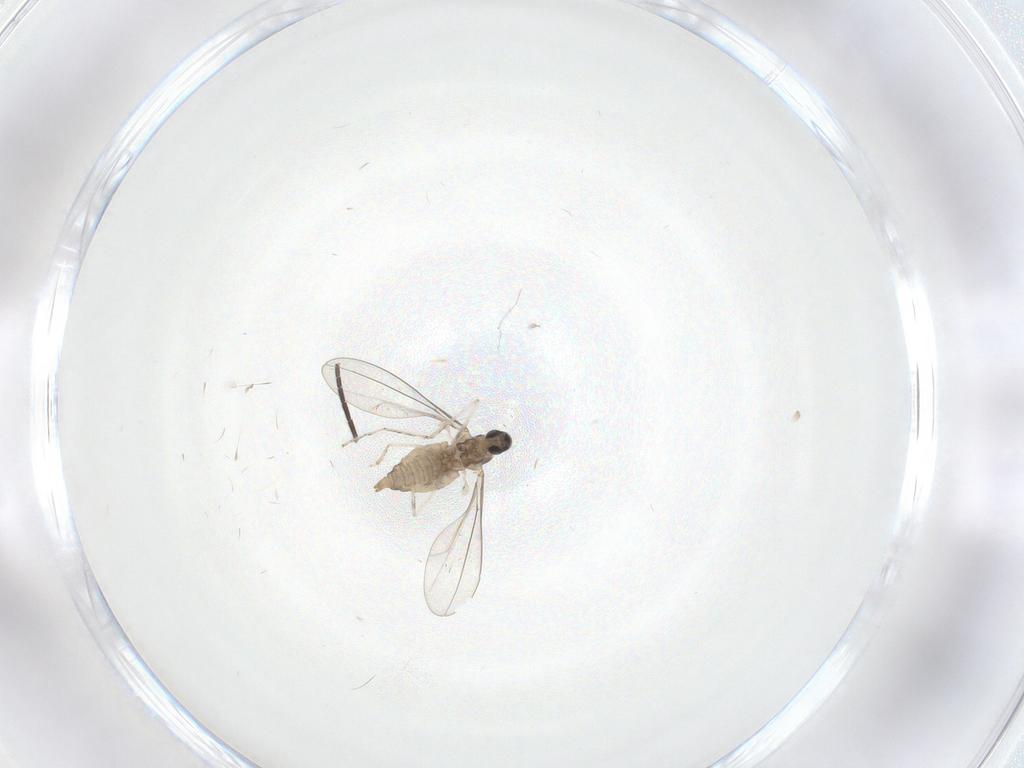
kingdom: Animalia
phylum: Arthropoda
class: Insecta
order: Diptera
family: Cecidomyiidae
